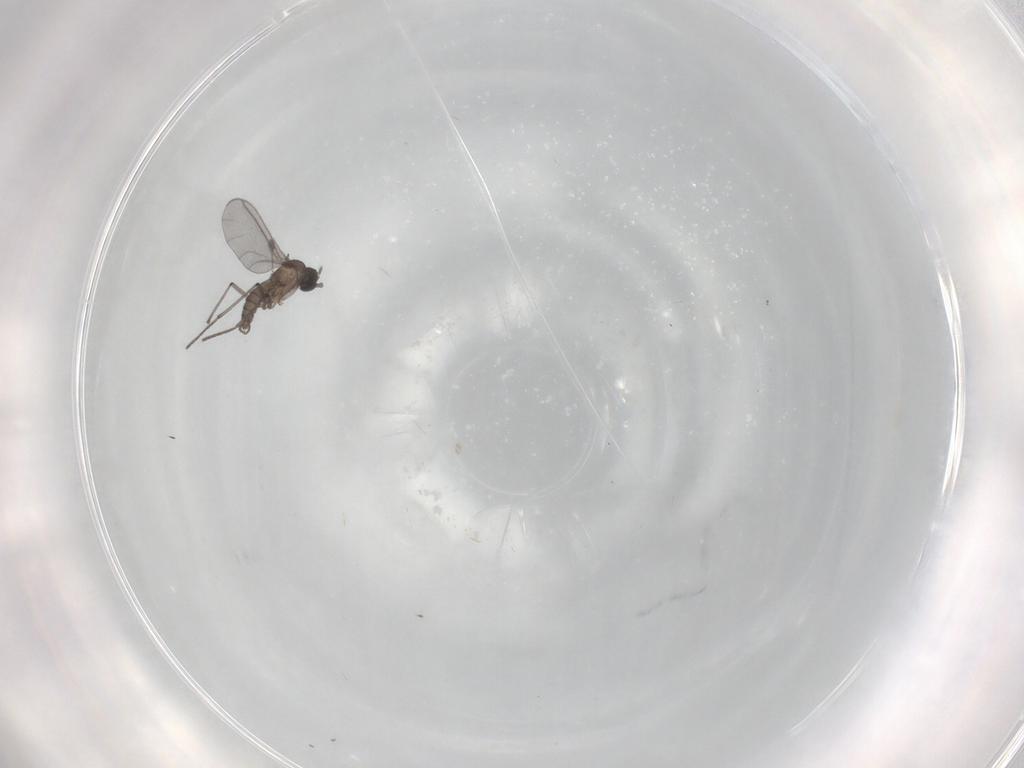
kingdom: Animalia
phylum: Arthropoda
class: Insecta
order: Diptera
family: Sciaridae
